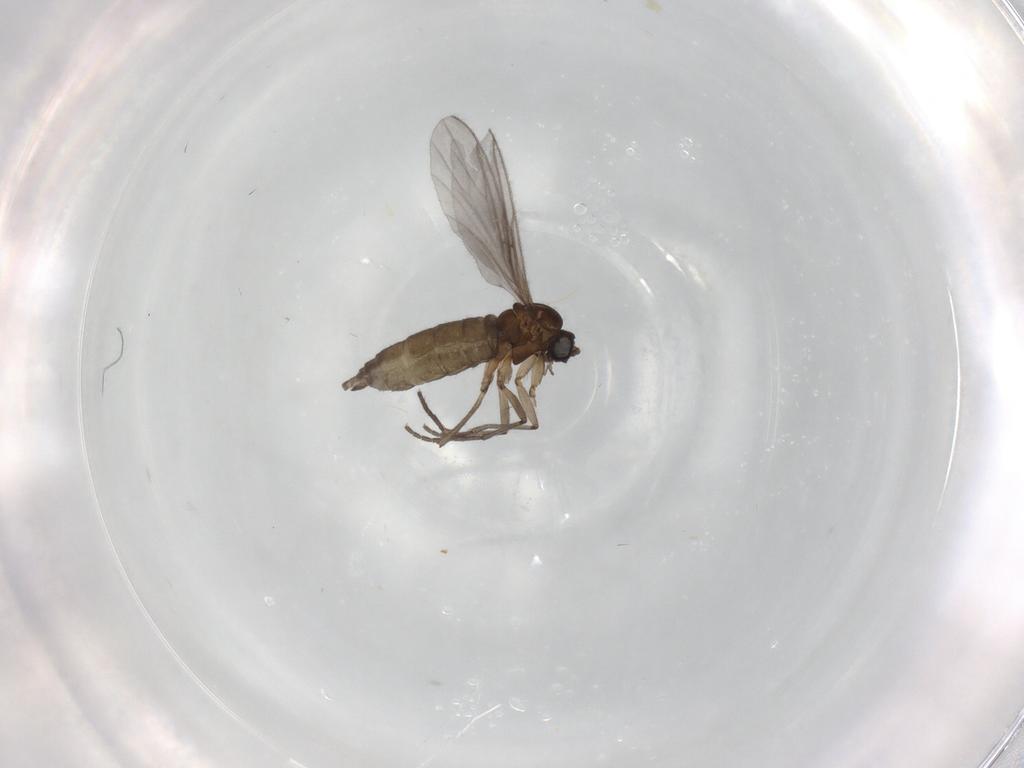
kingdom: Animalia
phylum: Arthropoda
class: Insecta
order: Diptera
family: Sciaridae
